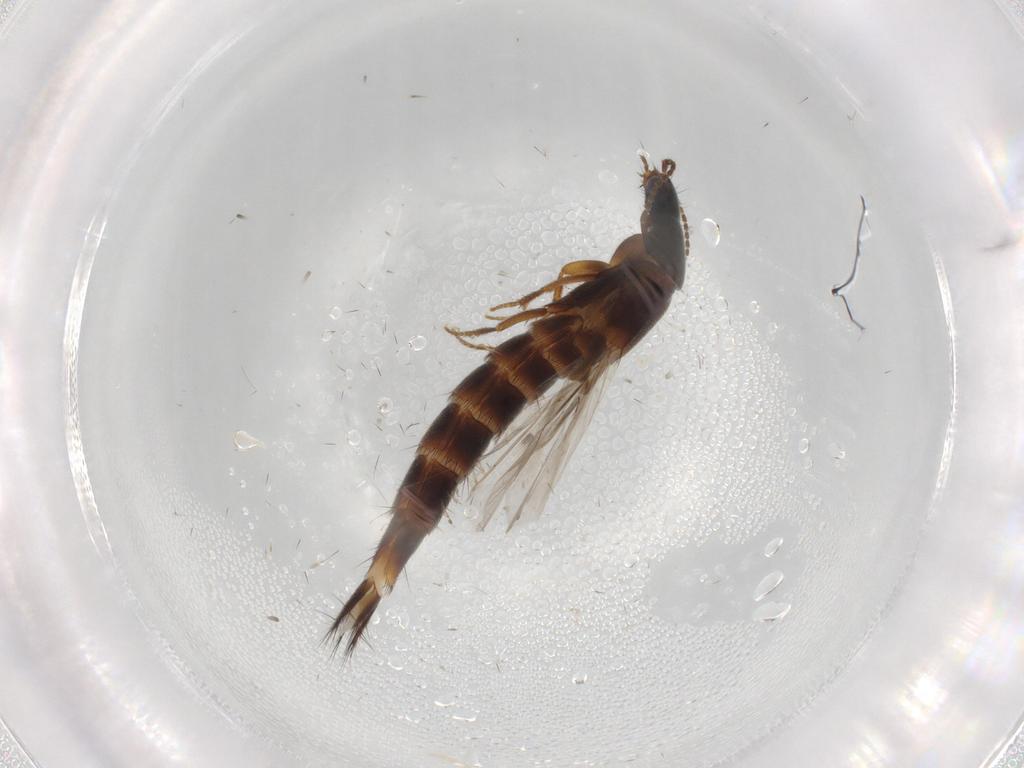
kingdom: Animalia
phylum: Arthropoda
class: Insecta
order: Coleoptera
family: Staphylinidae
